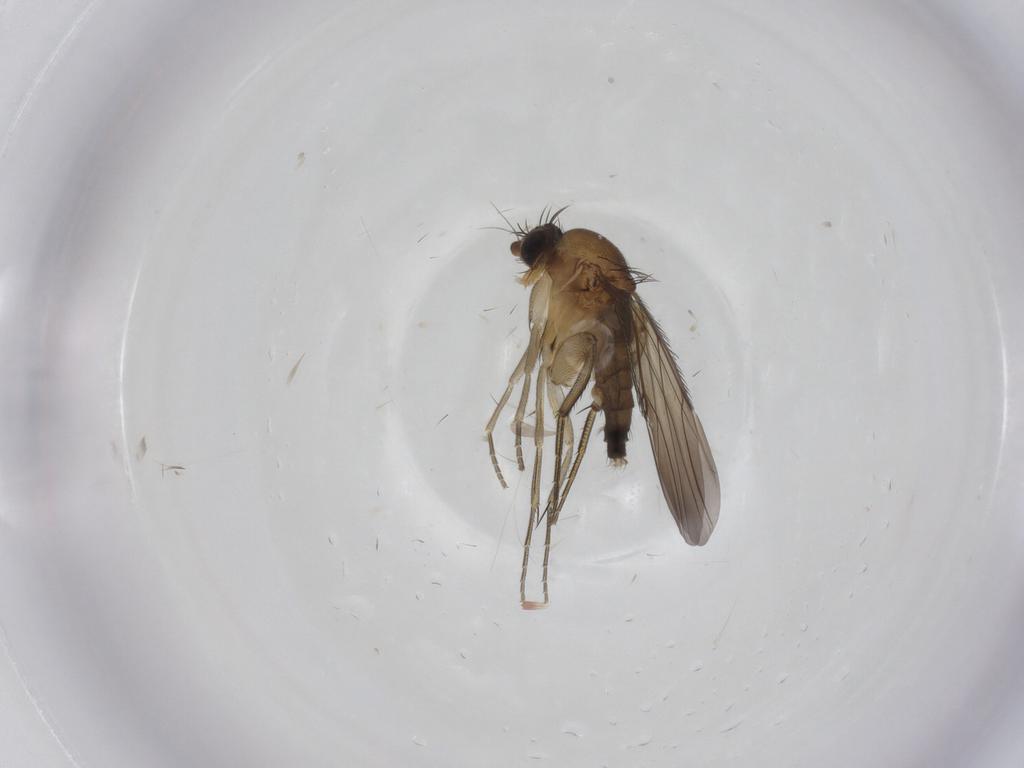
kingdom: Animalia
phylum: Arthropoda
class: Insecta
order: Diptera
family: Phoridae
